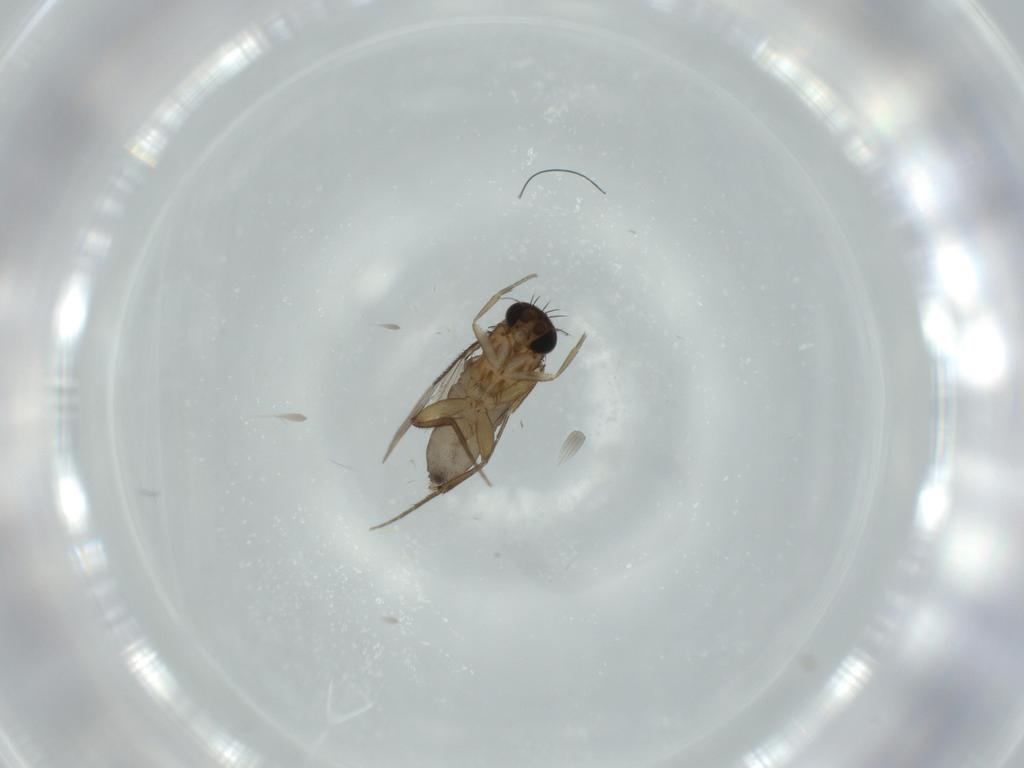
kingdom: Animalia
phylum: Arthropoda
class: Insecta
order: Diptera
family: Phoridae
